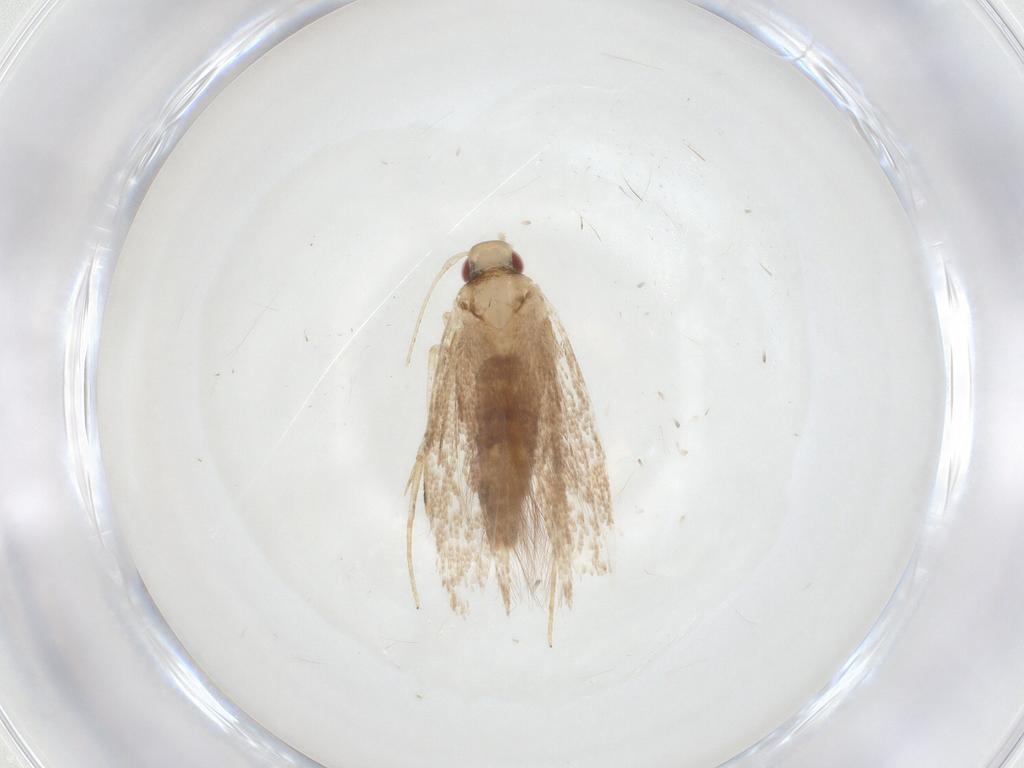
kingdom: Animalia
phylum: Arthropoda
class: Insecta
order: Lepidoptera
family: Cosmopterigidae
